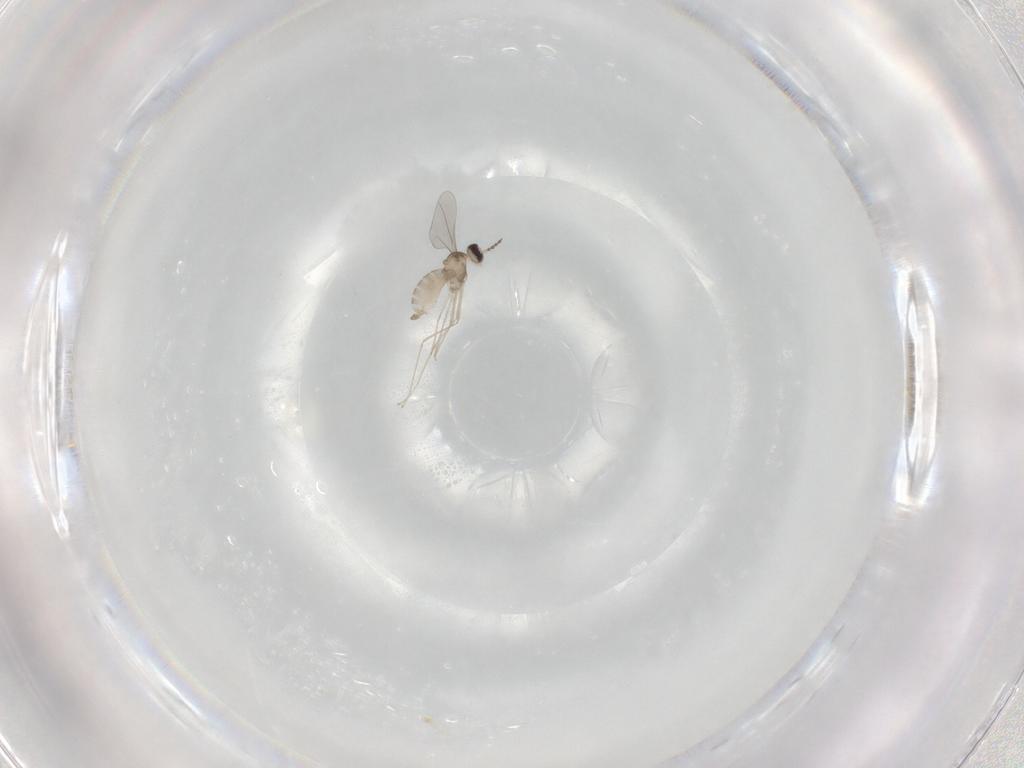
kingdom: Animalia
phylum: Arthropoda
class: Insecta
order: Diptera
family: Cecidomyiidae
